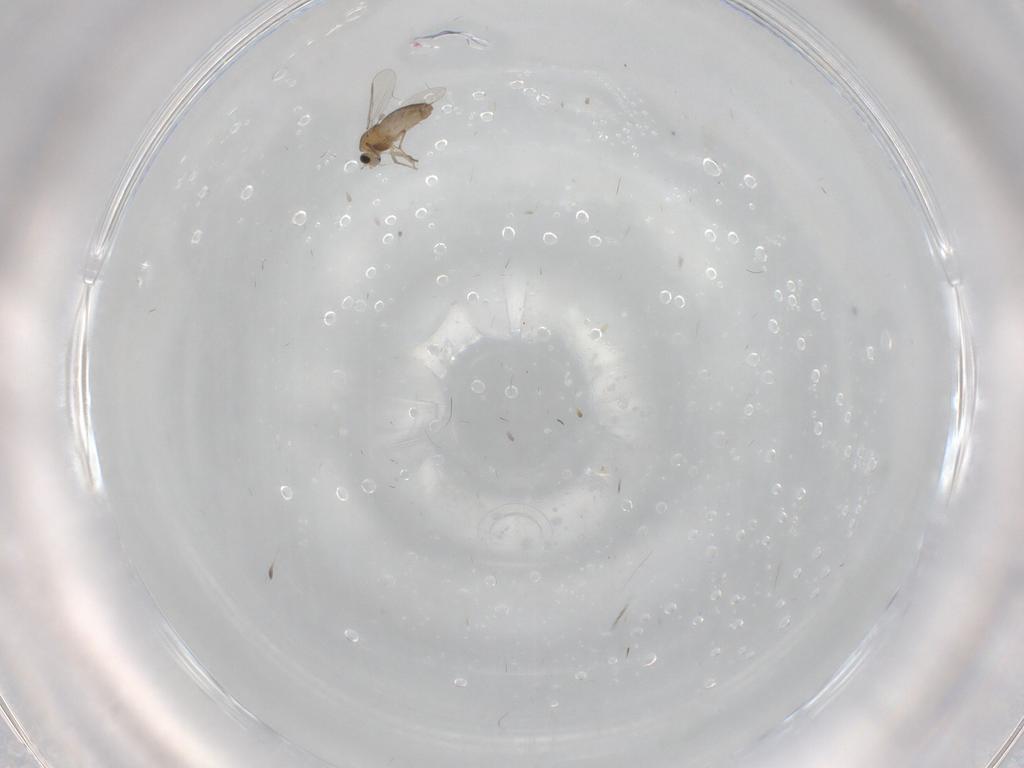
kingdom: Animalia
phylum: Arthropoda
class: Insecta
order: Diptera
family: Chironomidae
